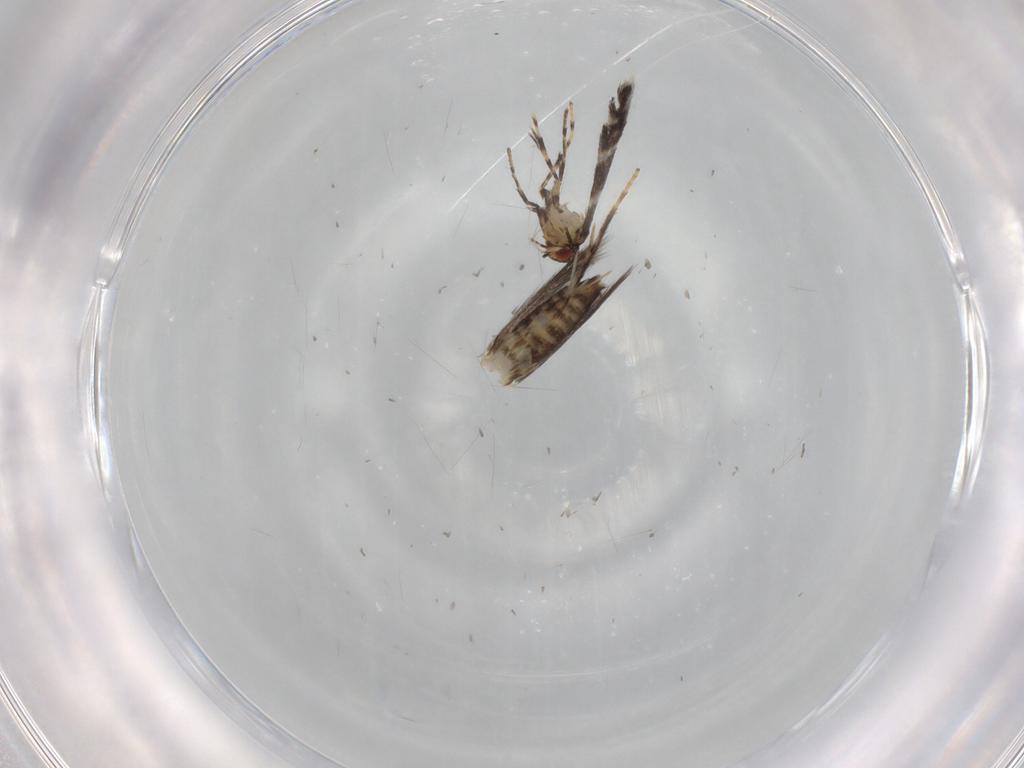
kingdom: Animalia
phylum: Arthropoda
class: Insecta
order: Lepidoptera
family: Gracillariidae
